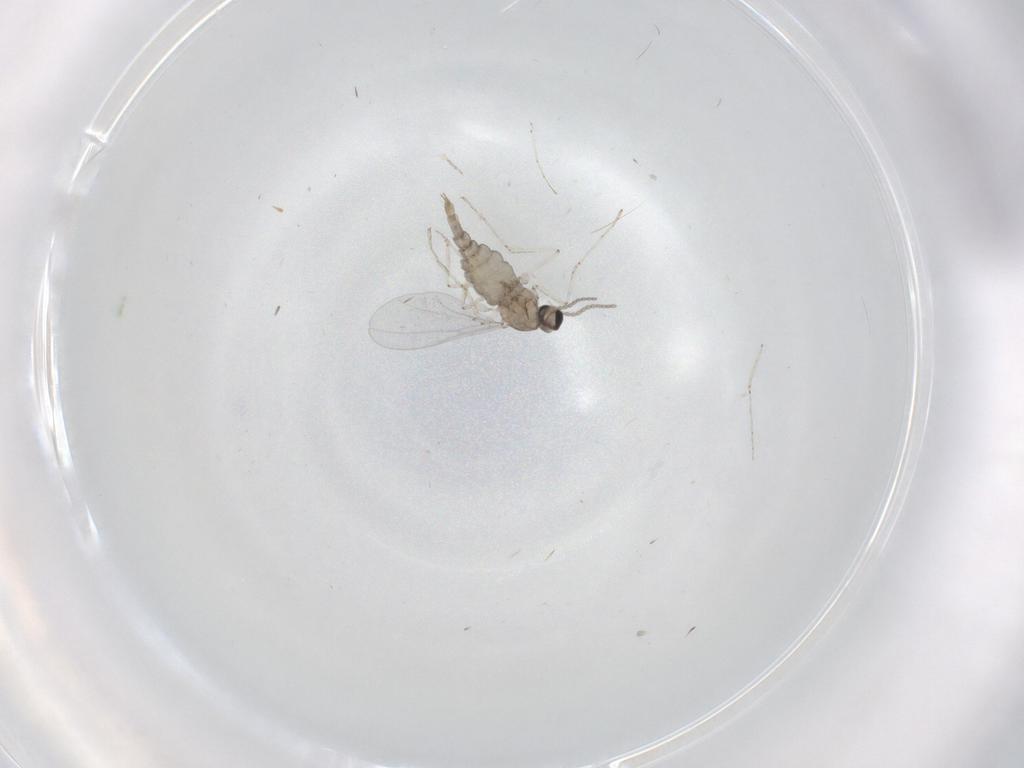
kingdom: Animalia
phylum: Arthropoda
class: Insecta
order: Diptera
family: Cecidomyiidae
